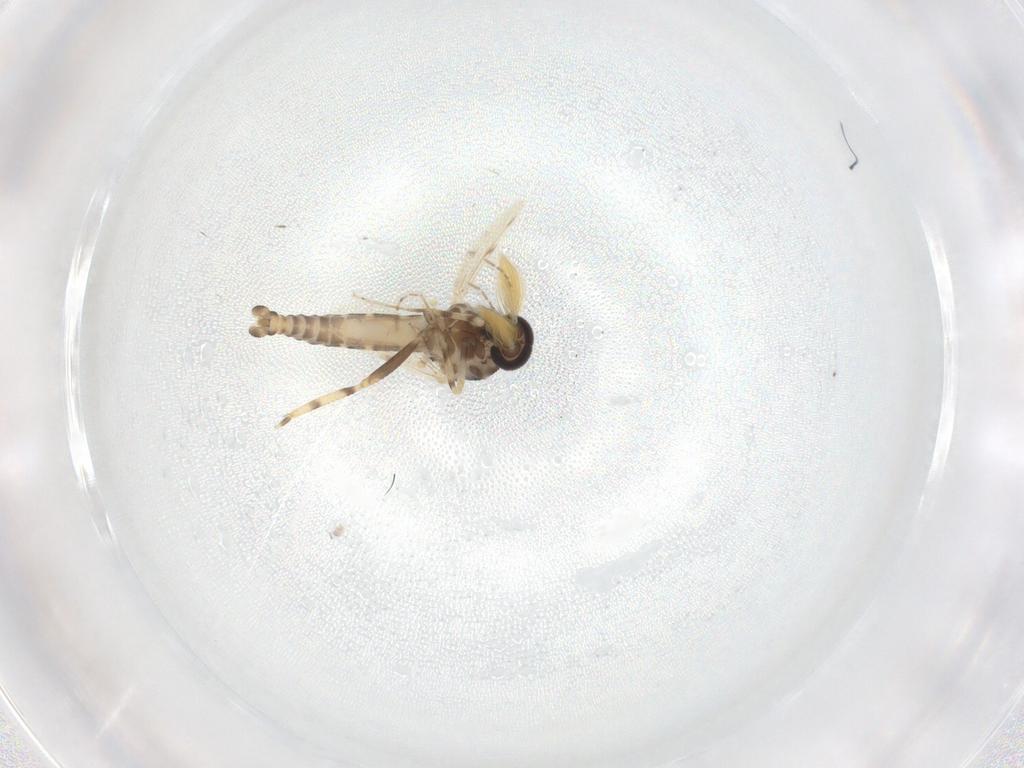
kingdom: Animalia
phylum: Arthropoda
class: Insecta
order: Diptera
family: Ceratopogonidae
